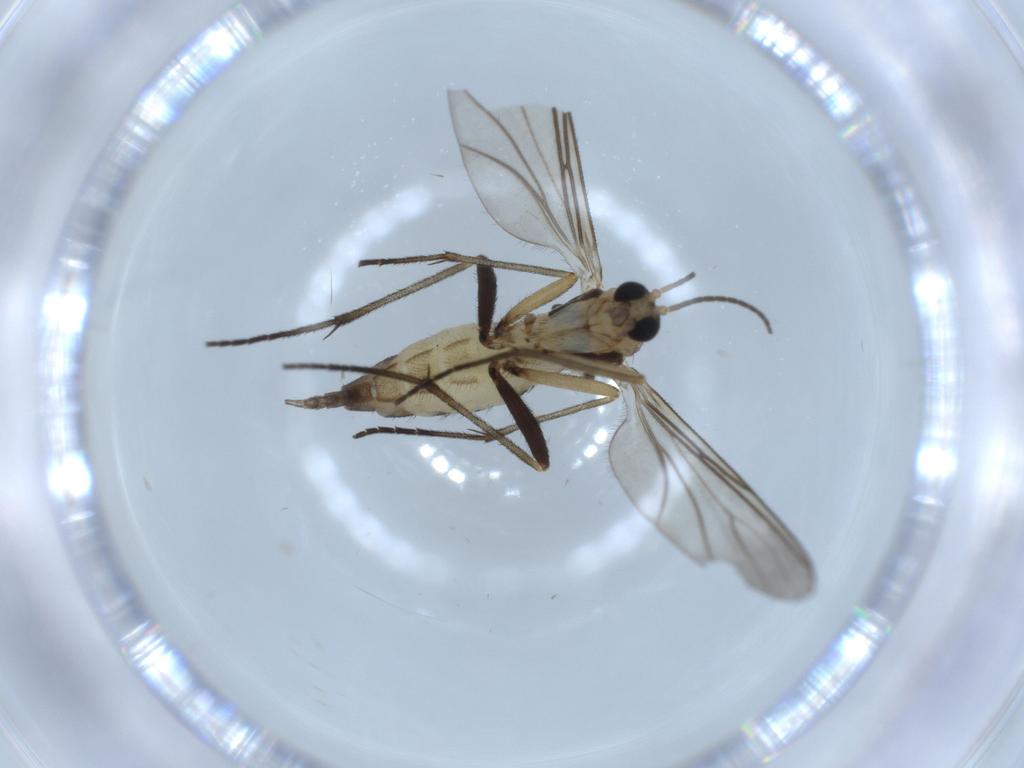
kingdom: Animalia
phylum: Arthropoda
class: Insecta
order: Diptera
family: Sciaridae
